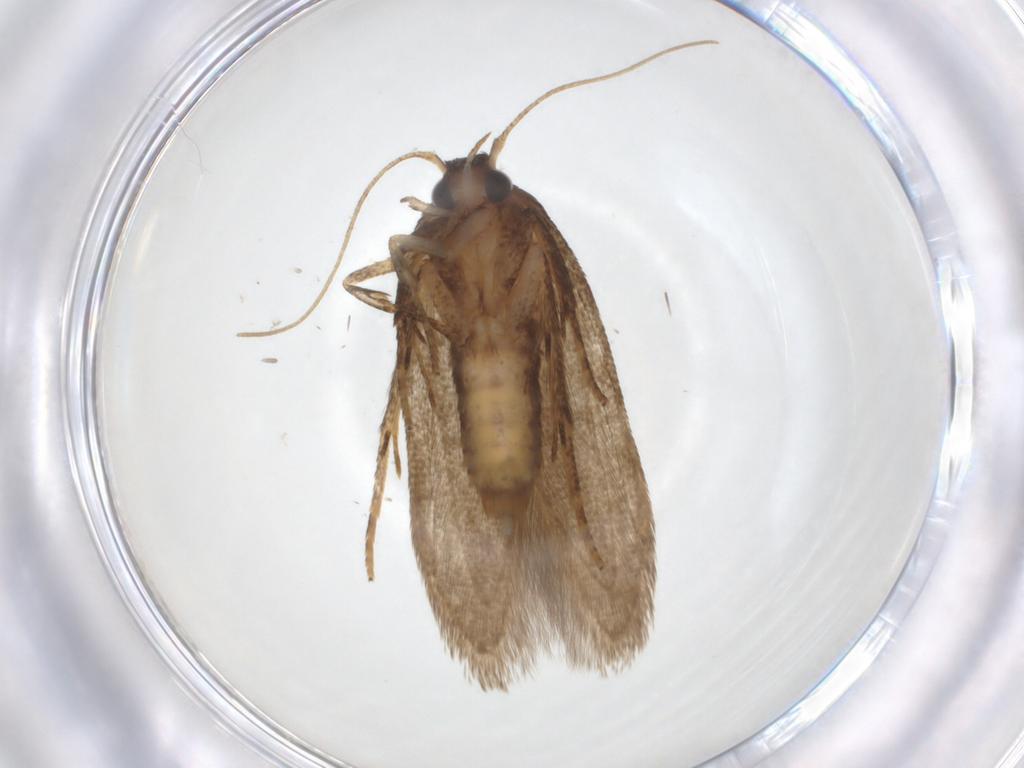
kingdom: Animalia
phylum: Arthropoda
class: Insecta
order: Lepidoptera
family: Blastobasidae
